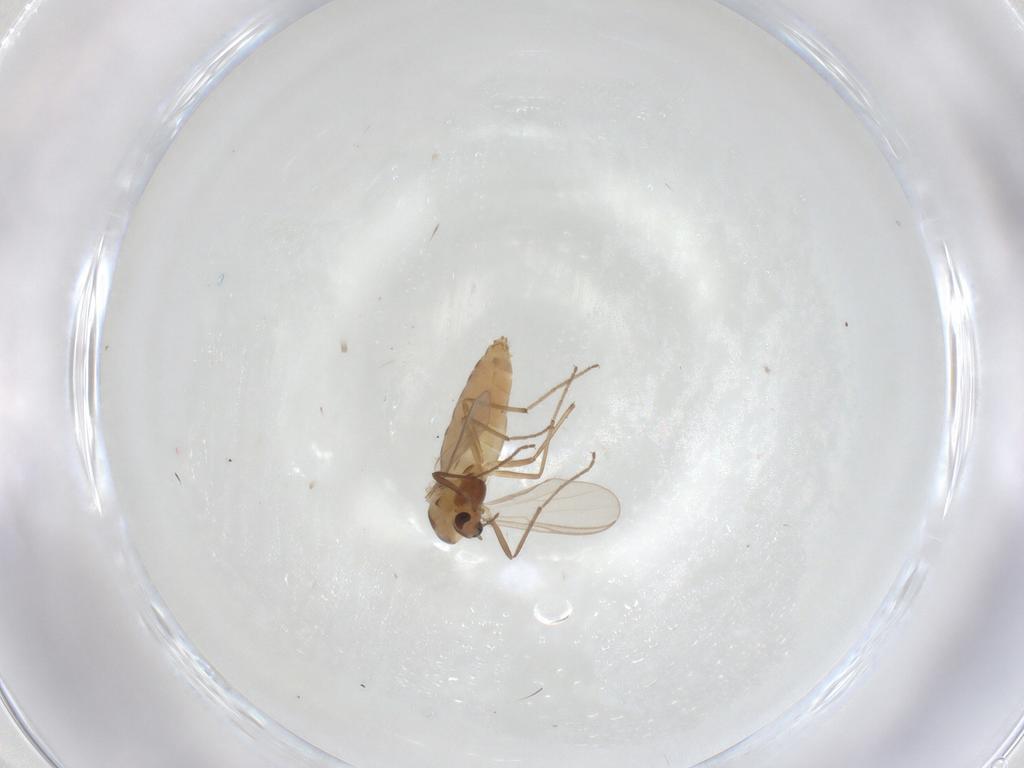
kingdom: Animalia
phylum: Arthropoda
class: Insecta
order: Diptera
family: Chironomidae
